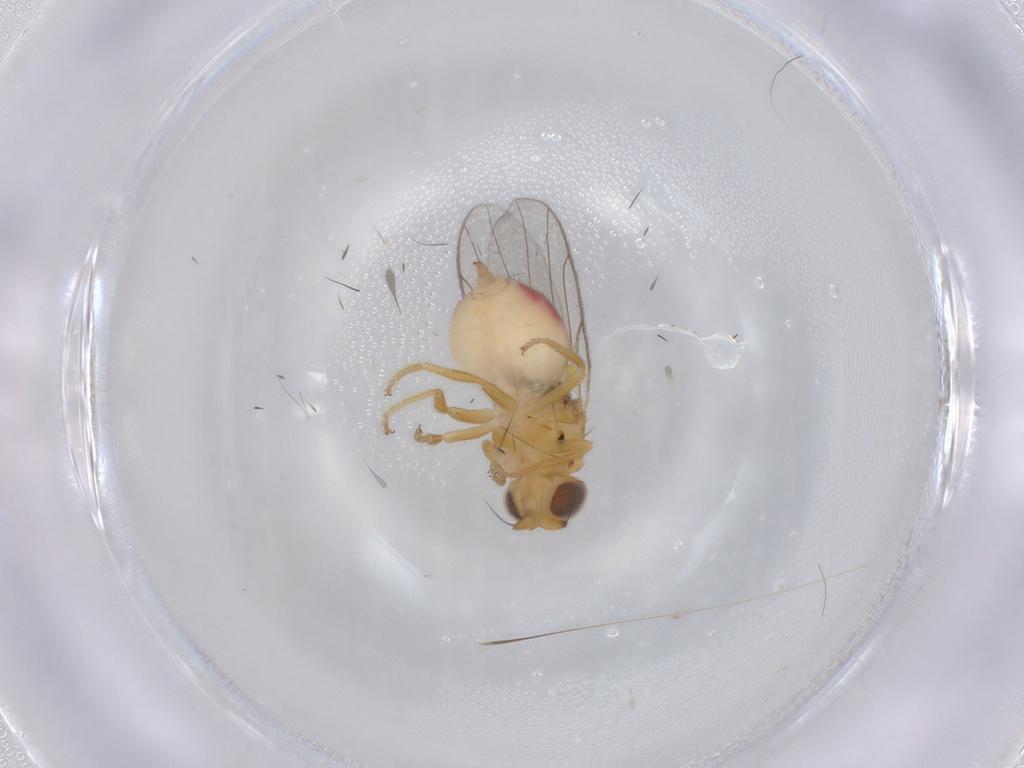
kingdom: Animalia
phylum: Arthropoda
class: Insecta
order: Diptera
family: Chloropidae
